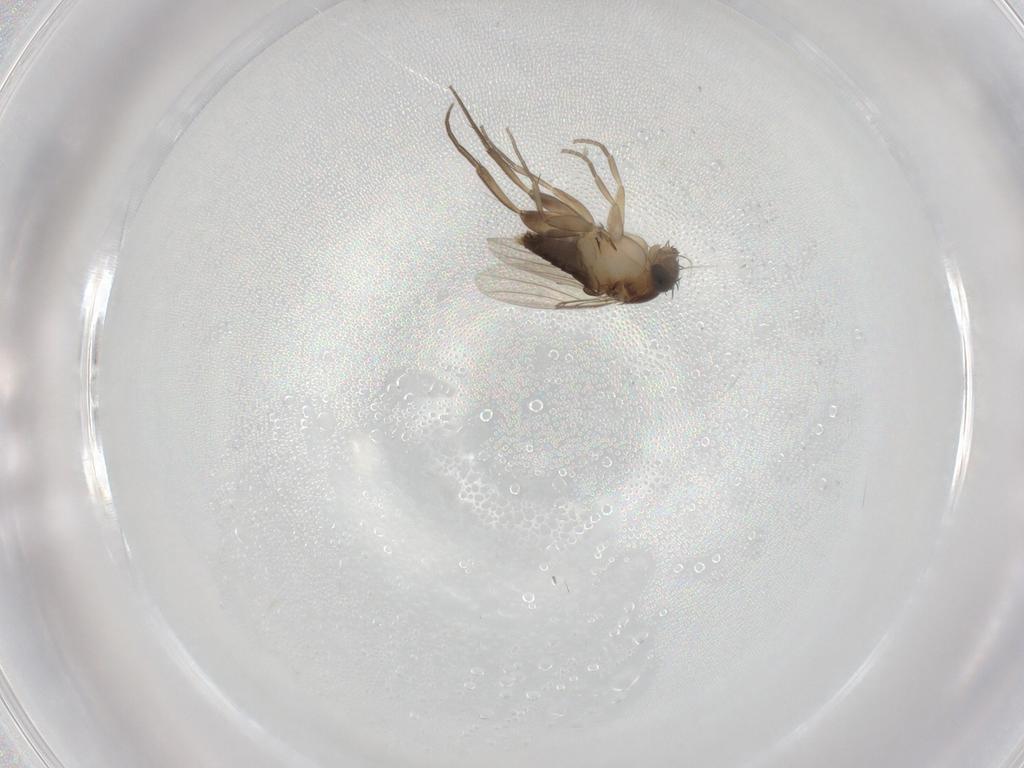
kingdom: Animalia
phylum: Arthropoda
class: Insecta
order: Diptera
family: Phoridae
